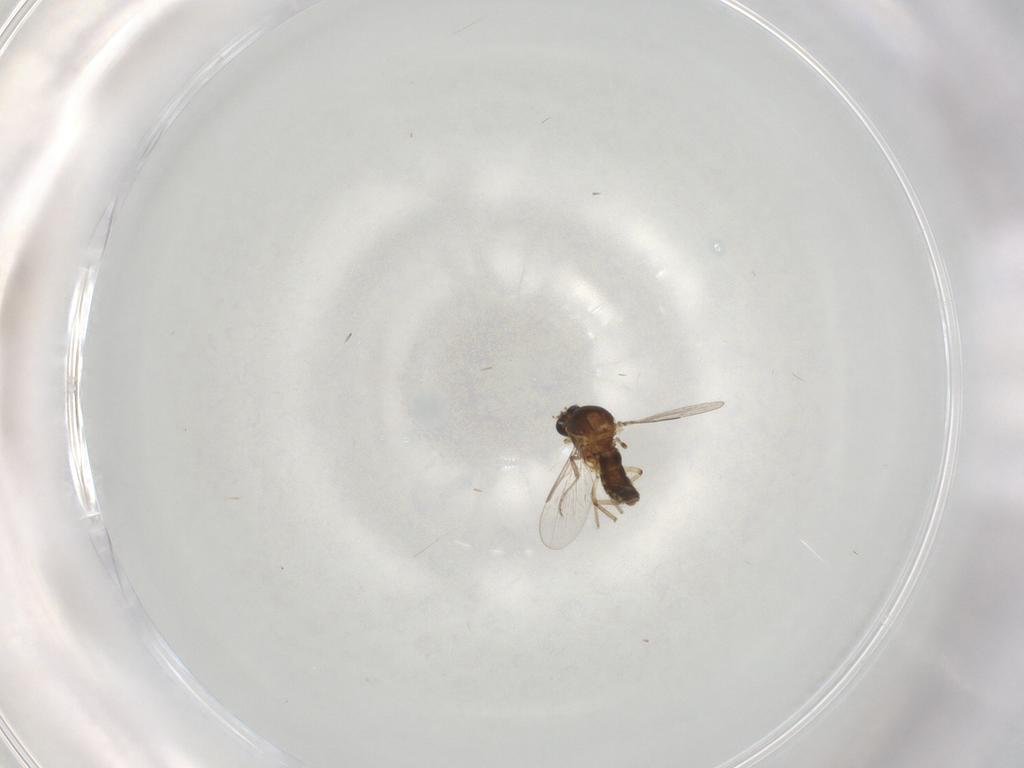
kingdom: Animalia
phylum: Arthropoda
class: Insecta
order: Diptera
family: Ceratopogonidae
